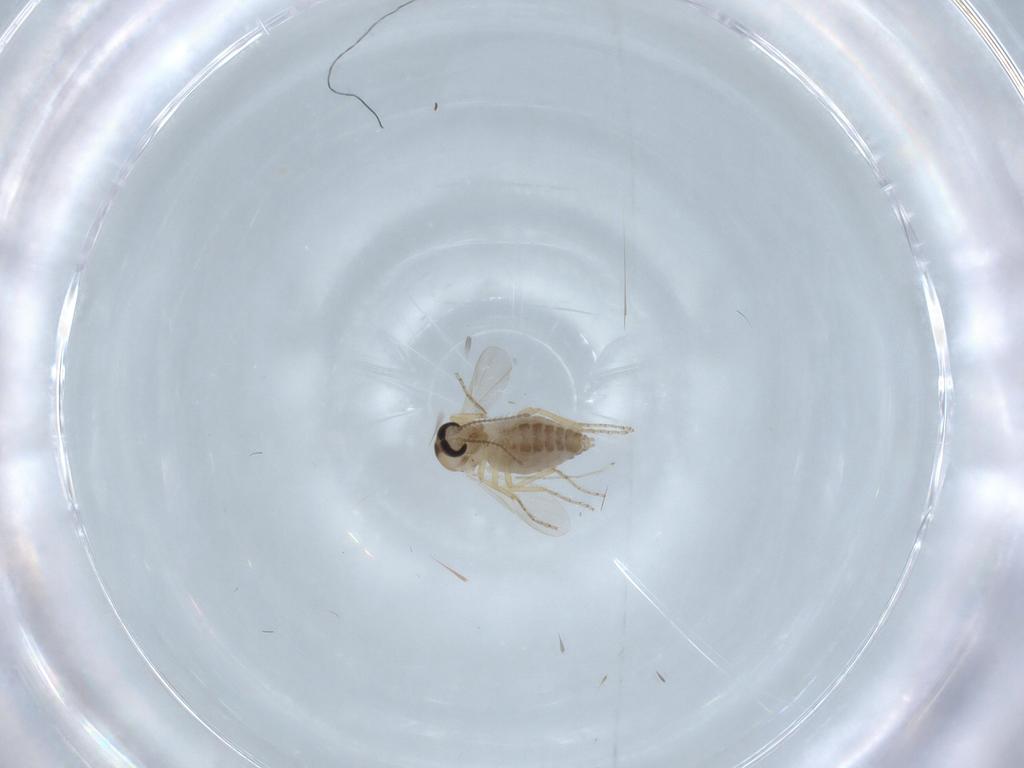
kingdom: Animalia
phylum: Arthropoda
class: Insecta
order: Diptera
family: Ceratopogonidae
